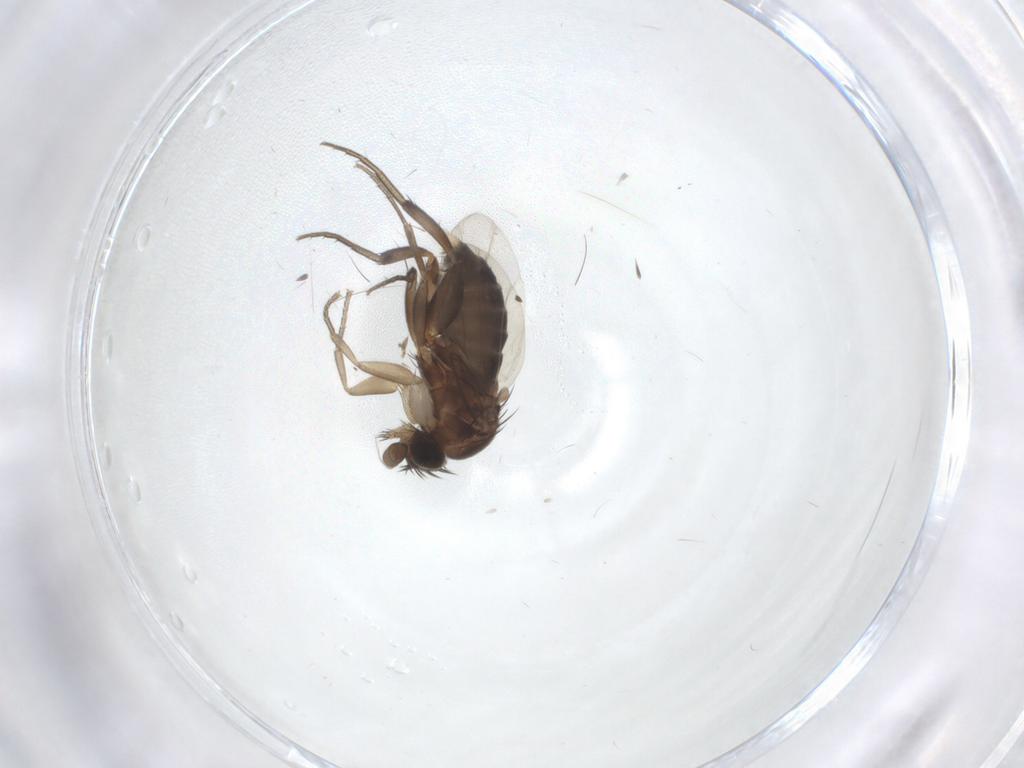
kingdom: Animalia
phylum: Arthropoda
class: Insecta
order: Diptera
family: Phoridae
